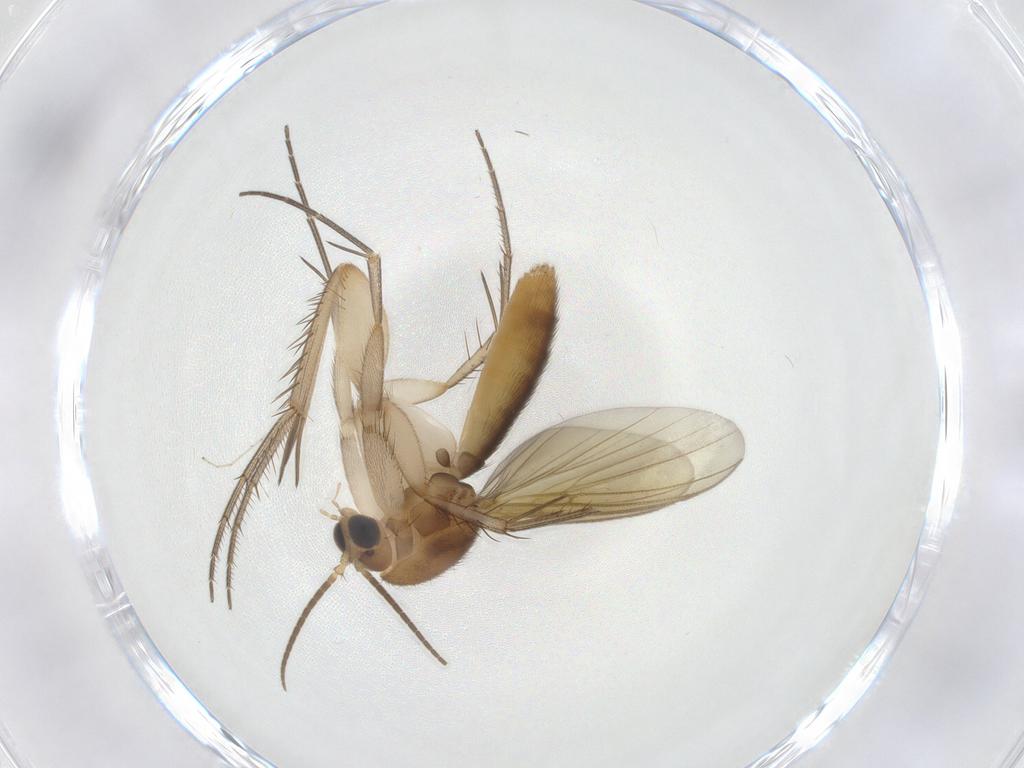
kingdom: Animalia
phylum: Arthropoda
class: Insecta
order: Diptera
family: Mycetophilidae
